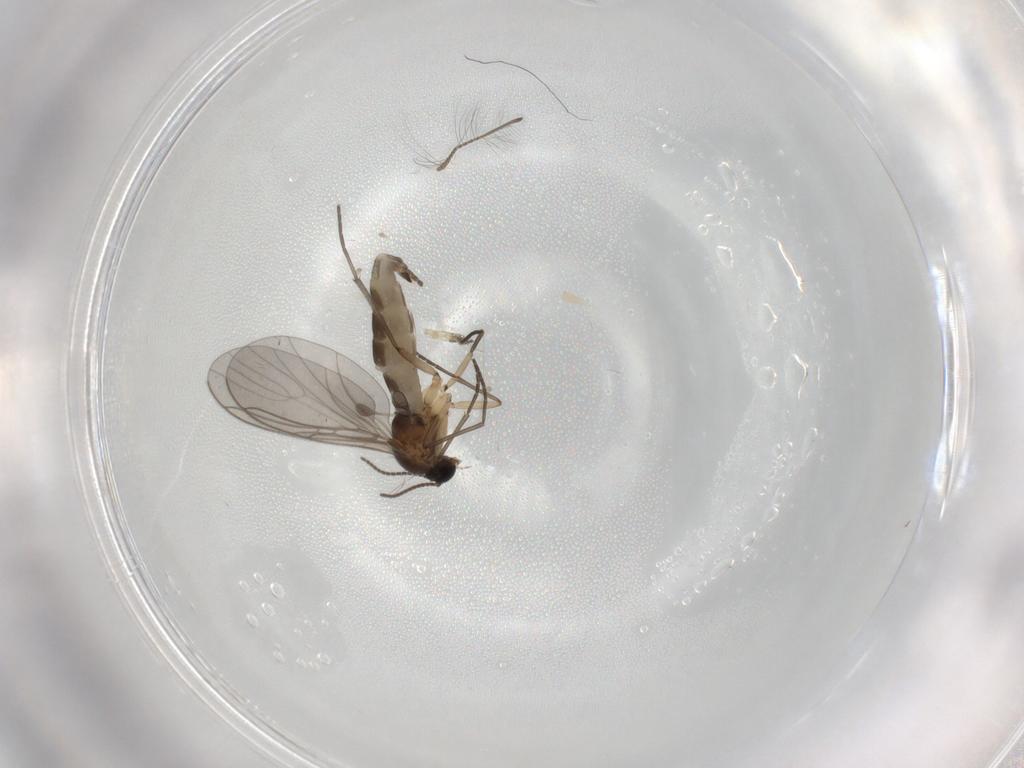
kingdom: Animalia
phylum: Arthropoda
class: Insecta
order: Diptera
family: Sciaridae
